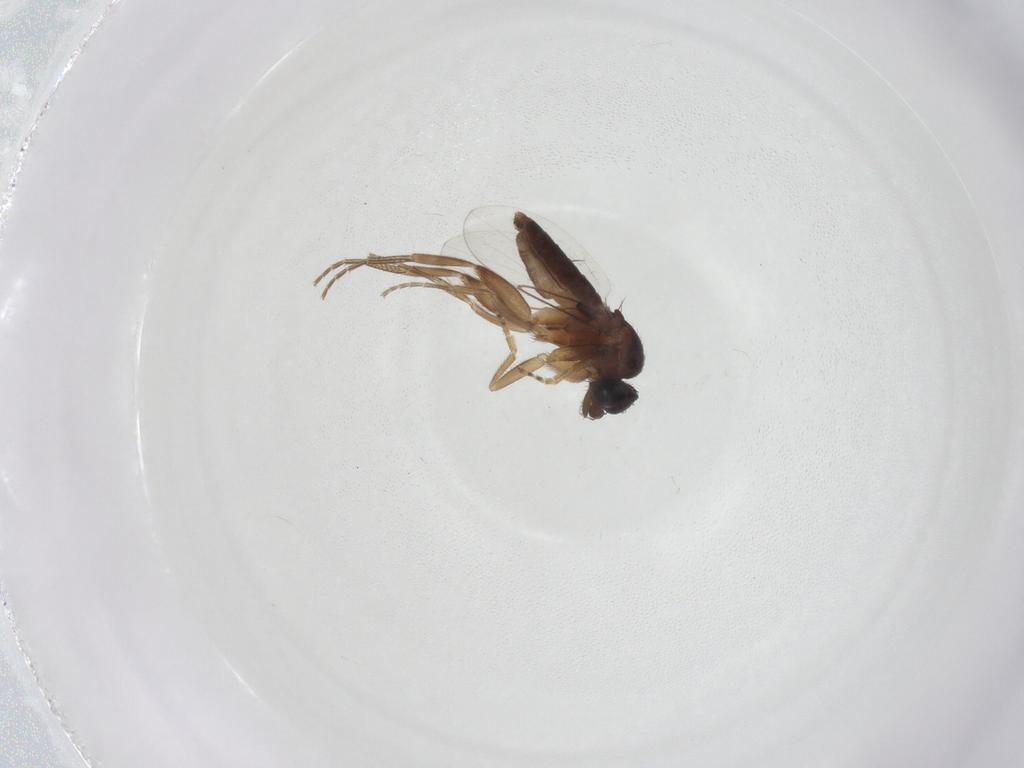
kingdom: Animalia
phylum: Arthropoda
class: Insecta
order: Diptera
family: Phoridae
